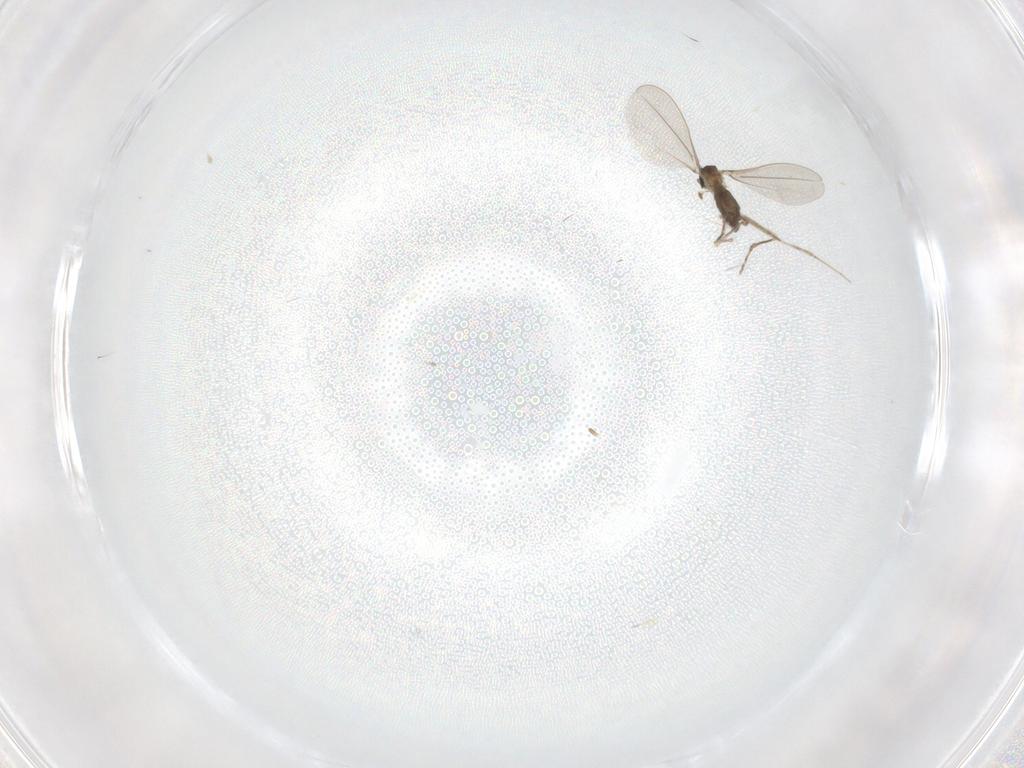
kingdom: Animalia
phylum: Arthropoda
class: Insecta
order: Diptera
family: Cecidomyiidae
